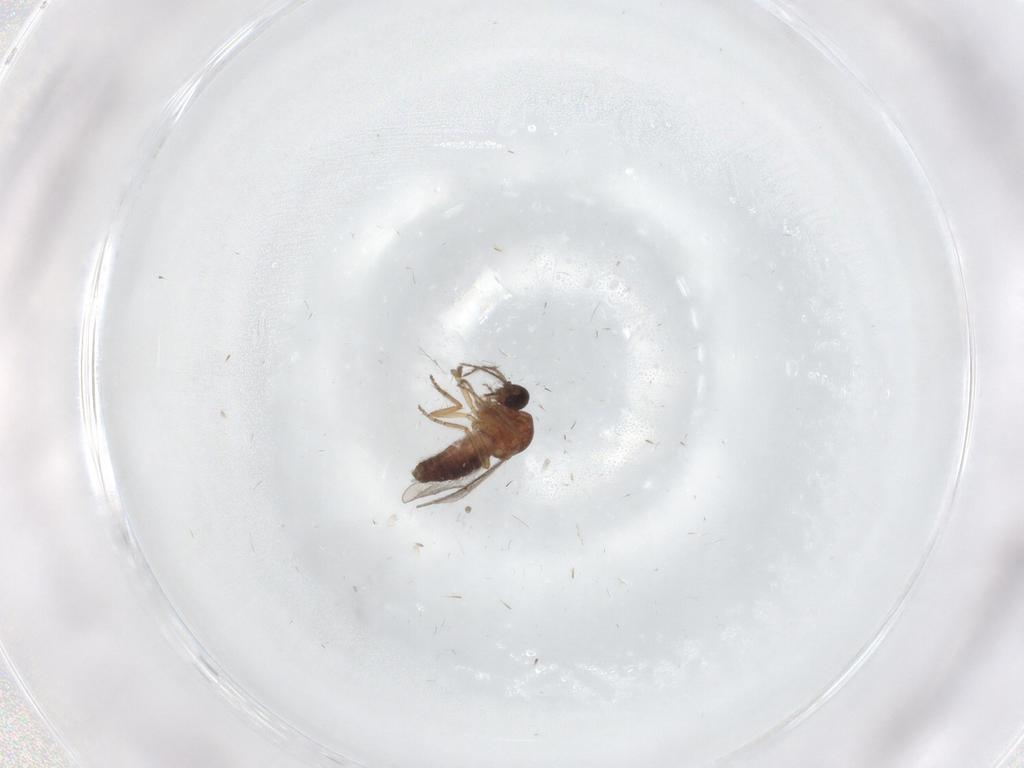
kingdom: Animalia
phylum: Arthropoda
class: Insecta
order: Diptera
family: Ceratopogonidae
